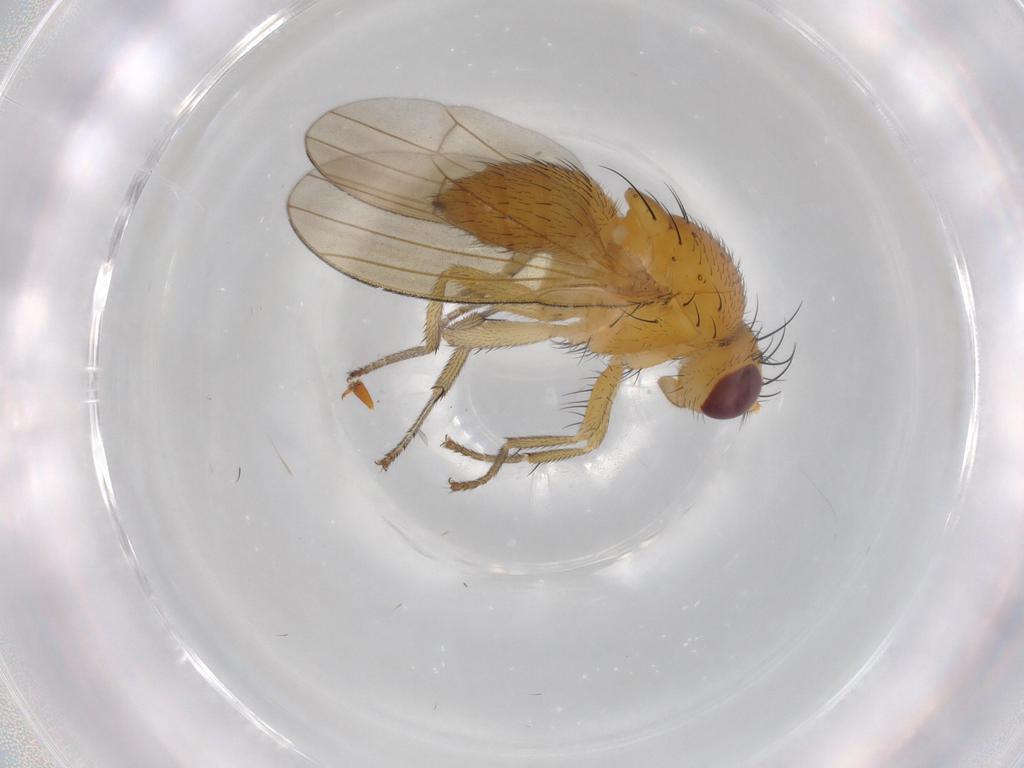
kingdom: Animalia
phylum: Arthropoda
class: Insecta
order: Diptera
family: Lauxaniidae
